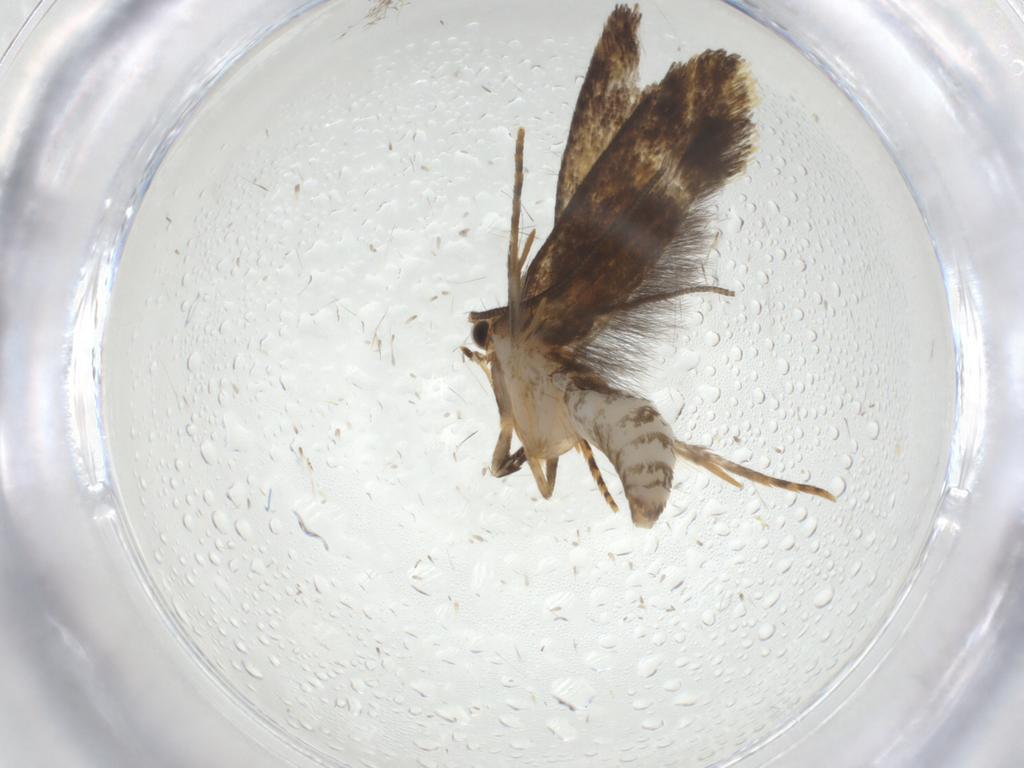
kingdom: Animalia
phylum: Arthropoda
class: Insecta
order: Lepidoptera
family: Tineidae
